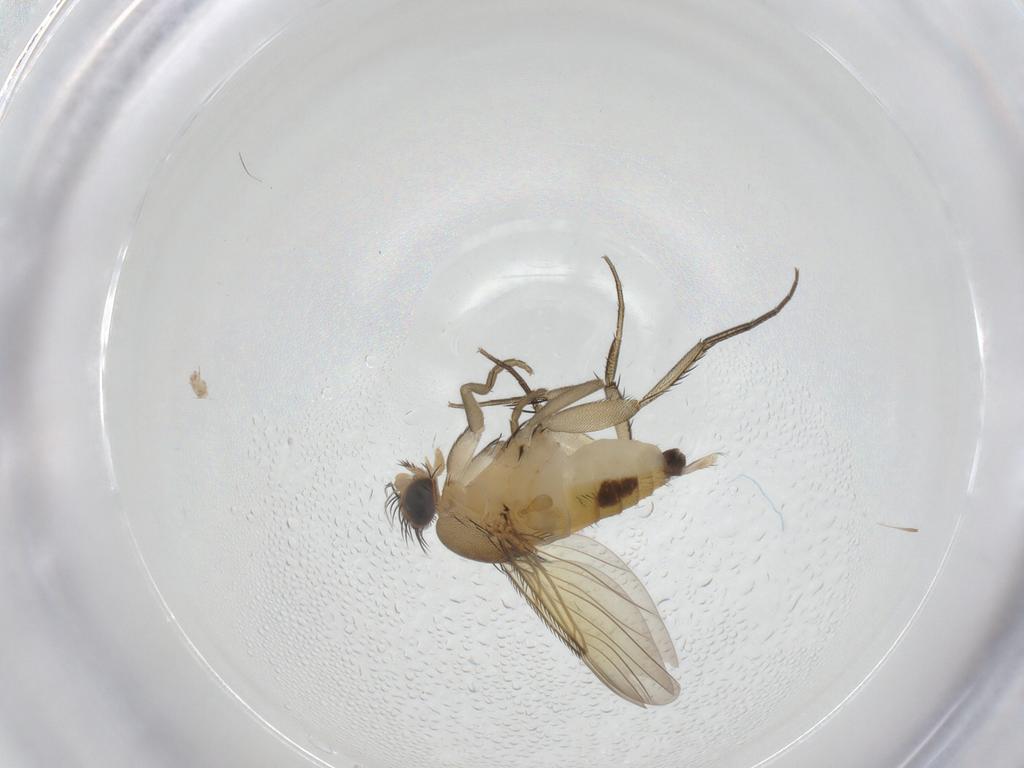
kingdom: Animalia
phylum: Arthropoda
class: Insecta
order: Diptera
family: Phoridae
